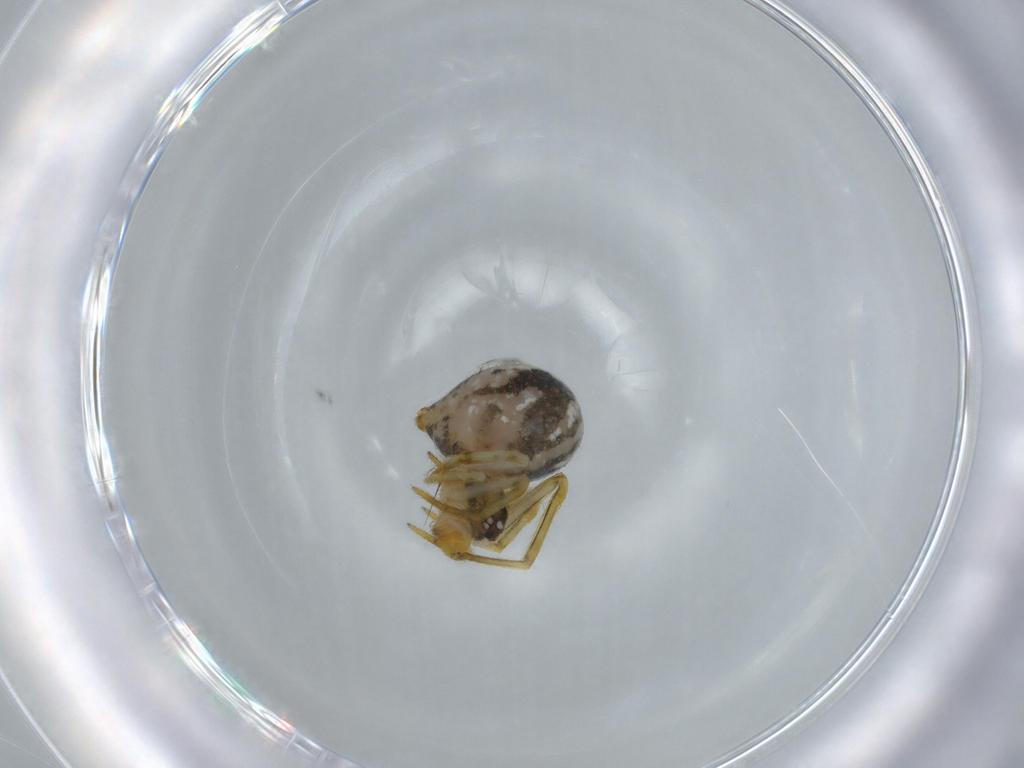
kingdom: Animalia
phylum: Arthropoda
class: Arachnida
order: Araneae
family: Theridiidae
